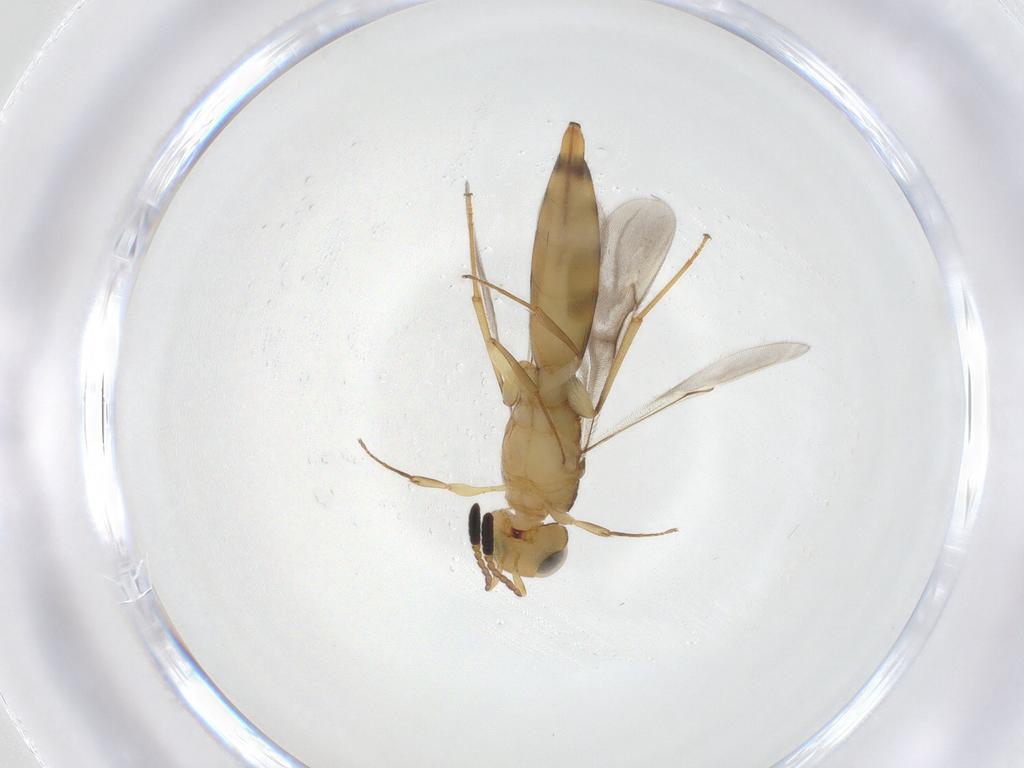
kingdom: Animalia
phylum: Arthropoda
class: Insecta
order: Hymenoptera
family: Scelionidae
